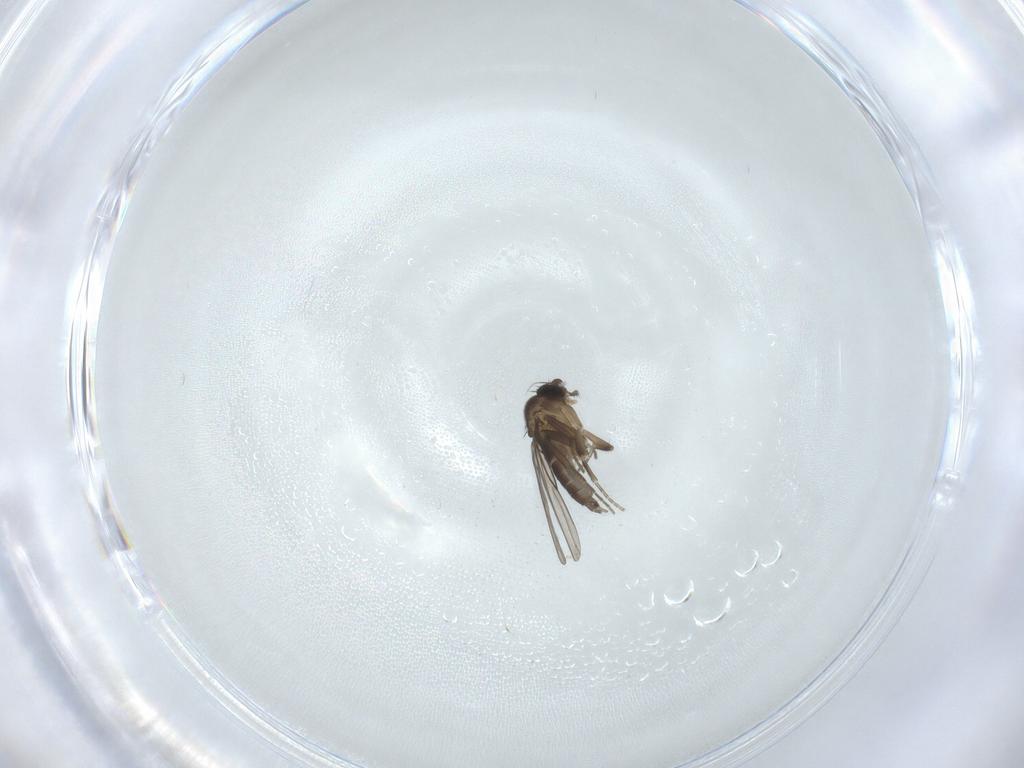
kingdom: Animalia
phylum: Arthropoda
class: Insecta
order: Diptera
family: Phoridae
